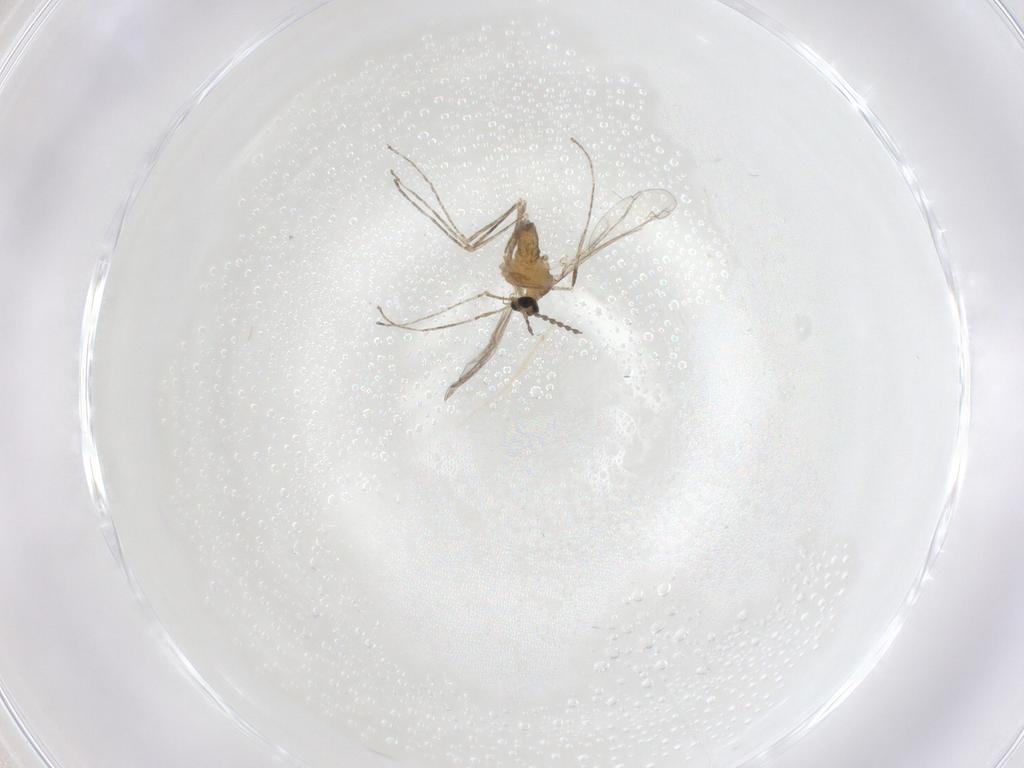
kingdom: Animalia
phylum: Arthropoda
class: Insecta
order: Diptera
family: Cecidomyiidae
